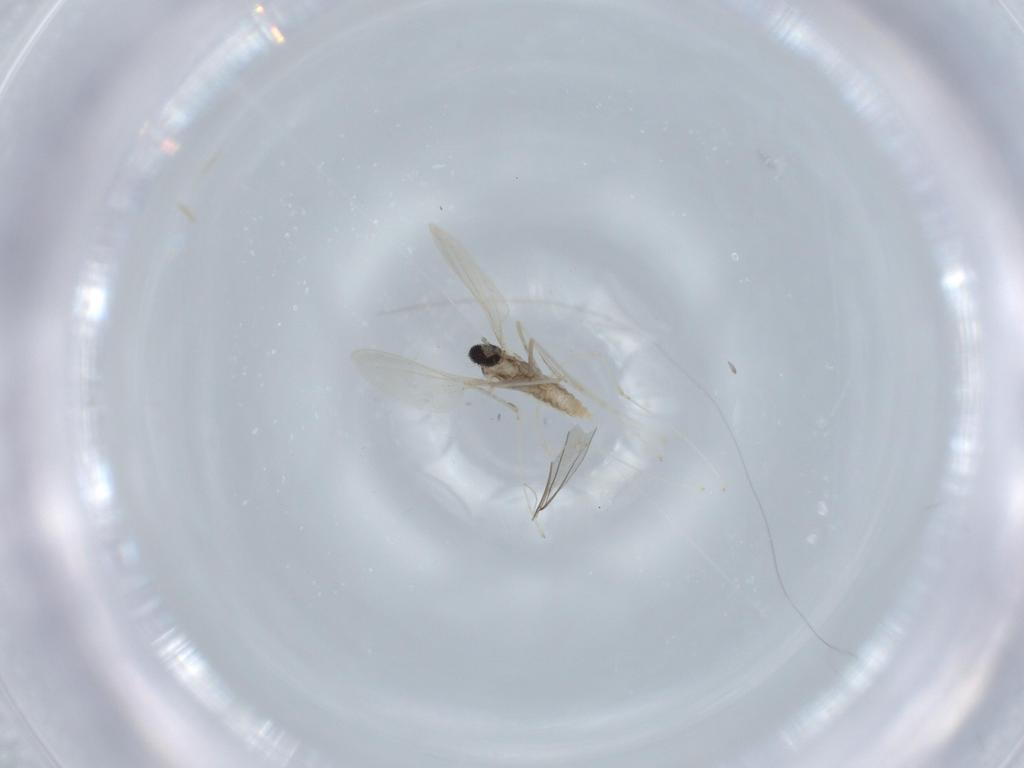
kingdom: Animalia
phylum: Arthropoda
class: Insecta
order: Diptera
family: Cecidomyiidae
